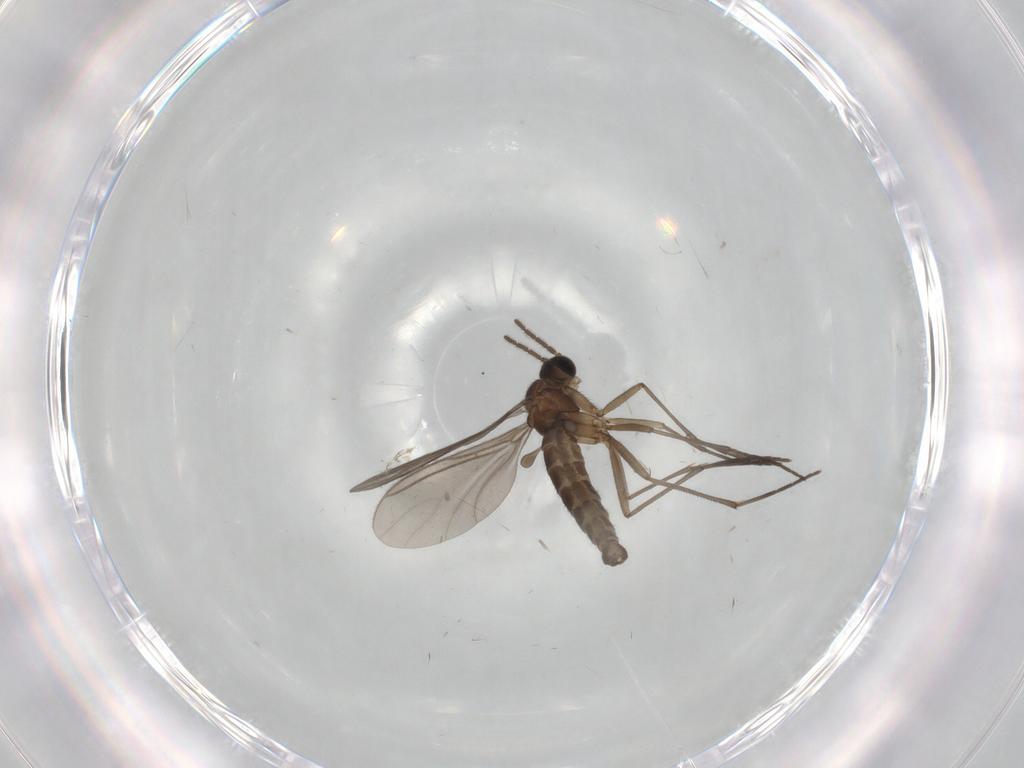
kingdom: Animalia
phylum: Arthropoda
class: Insecta
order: Diptera
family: Sciaridae
